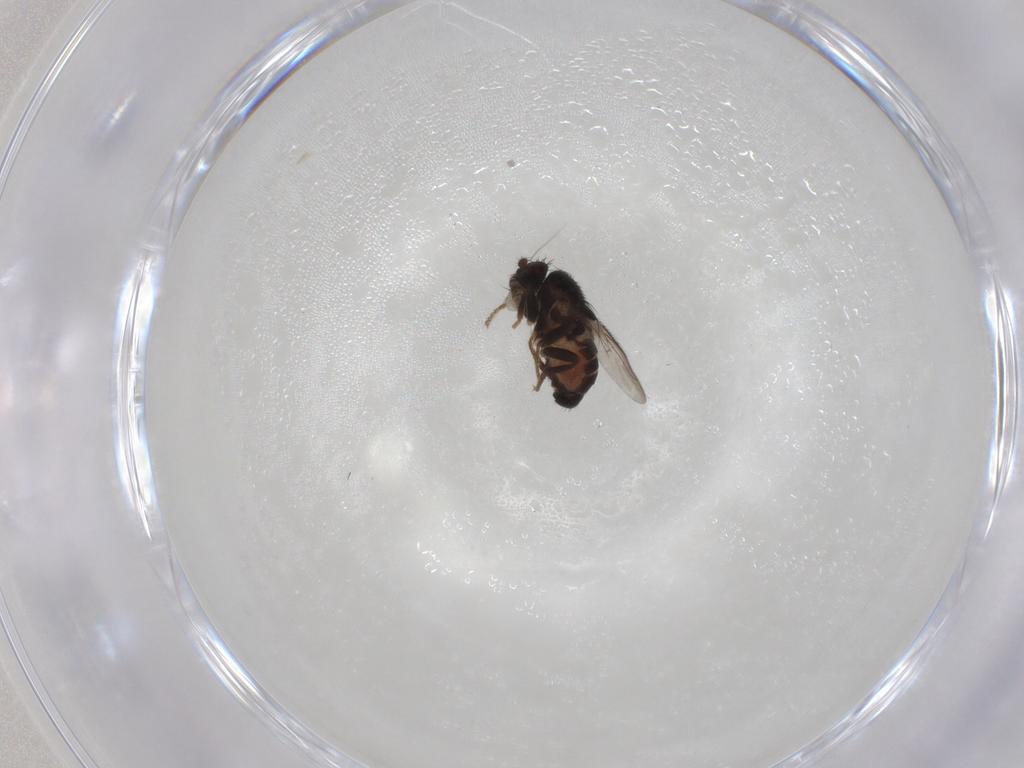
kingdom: Animalia
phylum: Arthropoda
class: Insecta
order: Diptera
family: Sphaeroceridae
